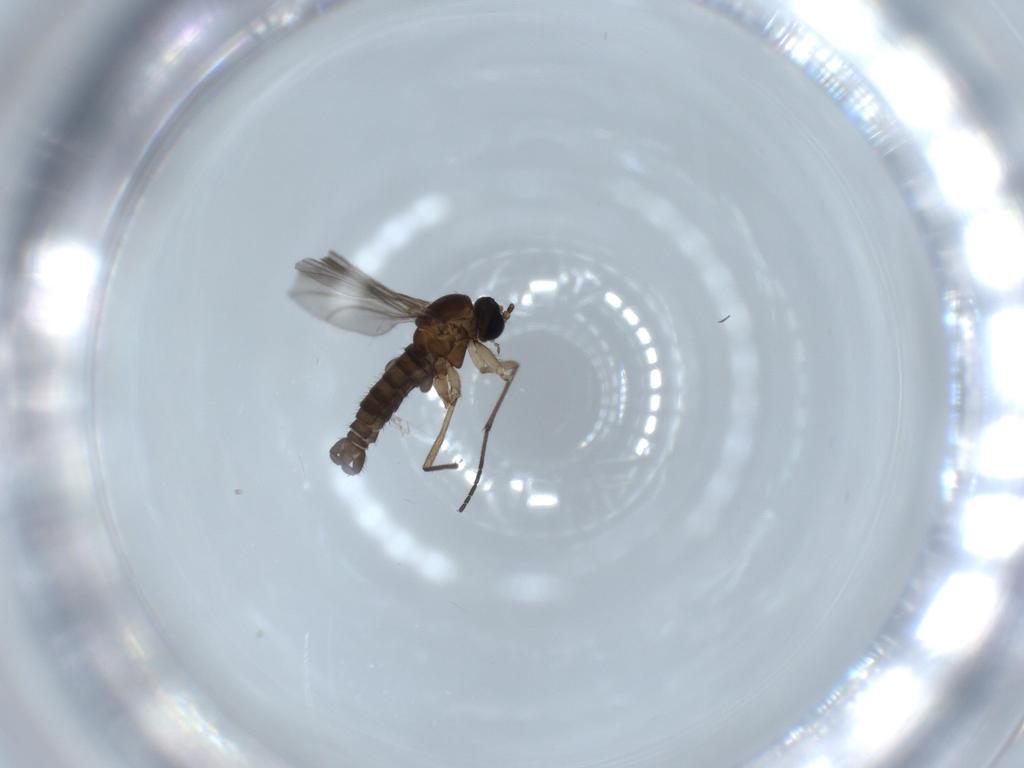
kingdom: Animalia
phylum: Arthropoda
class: Insecta
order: Diptera
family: Sciaridae
